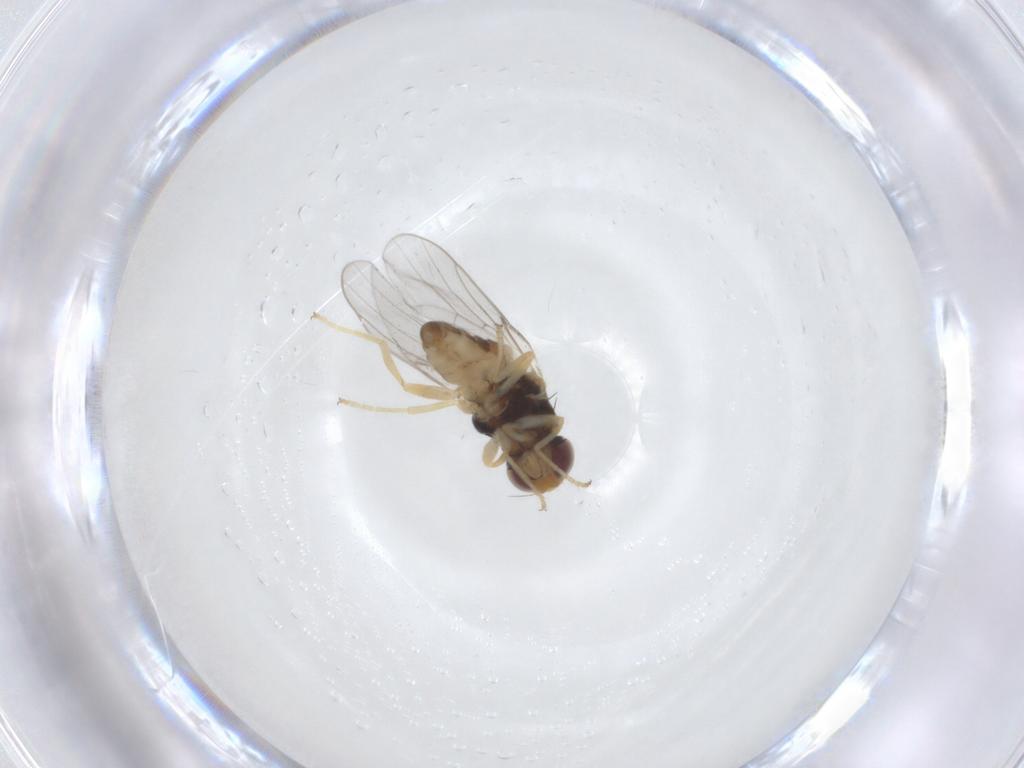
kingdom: Animalia
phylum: Arthropoda
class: Insecta
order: Diptera
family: Chloropidae
